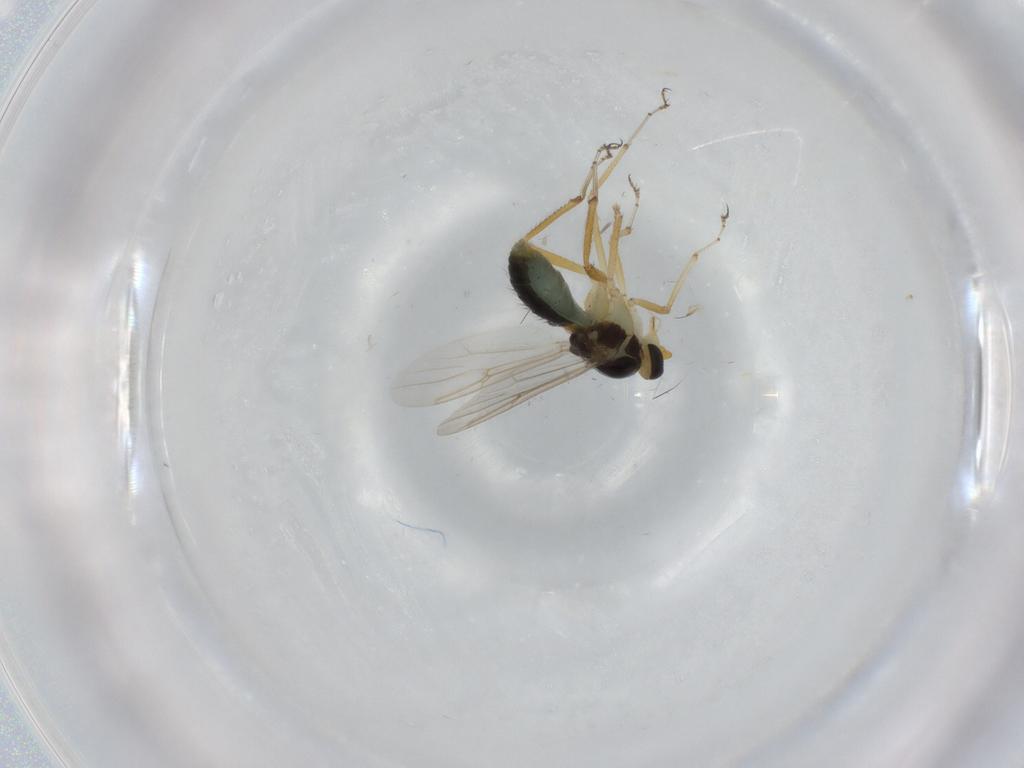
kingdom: Animalia
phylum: Arthropoda
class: Insecta
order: Diptera
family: Ceratopogonidae
